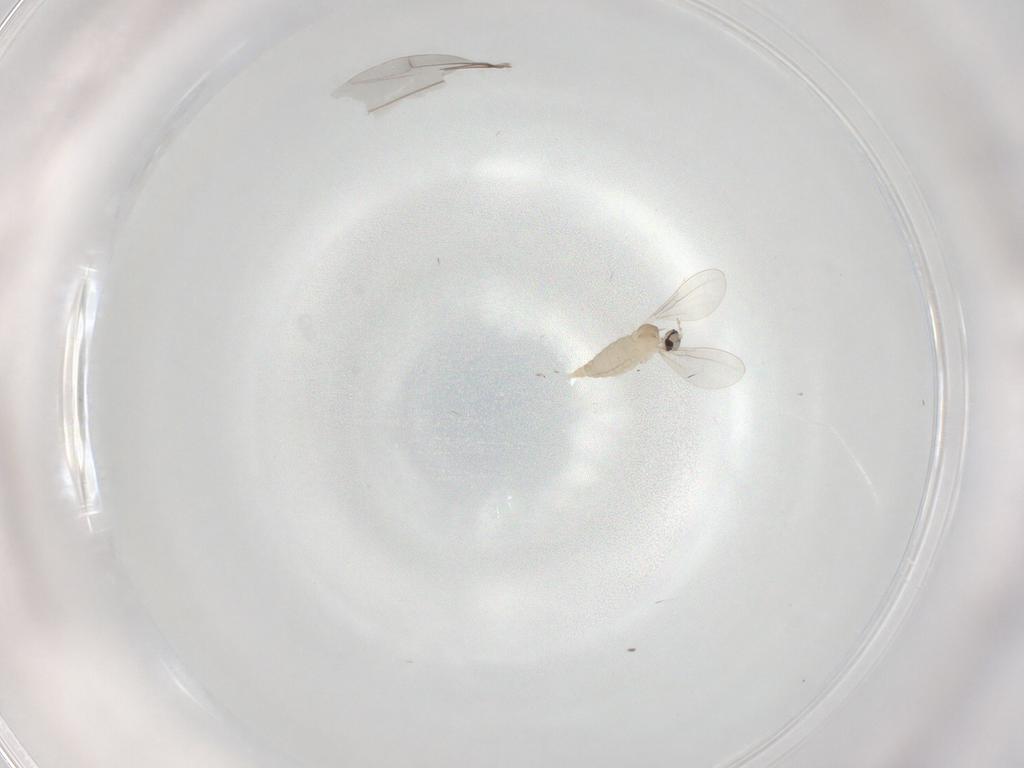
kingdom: Animalia
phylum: Arthropoda
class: Insecta
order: Diptera
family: Cecidomyiidae
